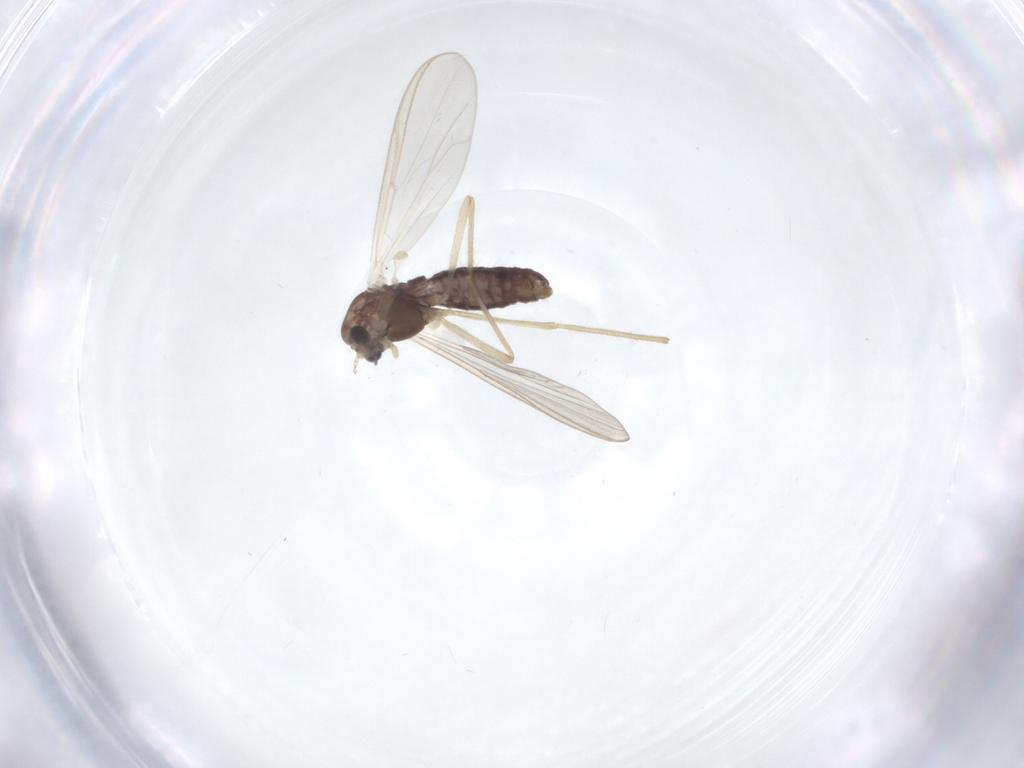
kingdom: Animalia
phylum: Arthropoda
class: Insecta
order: Diptera
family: Chironomidae
